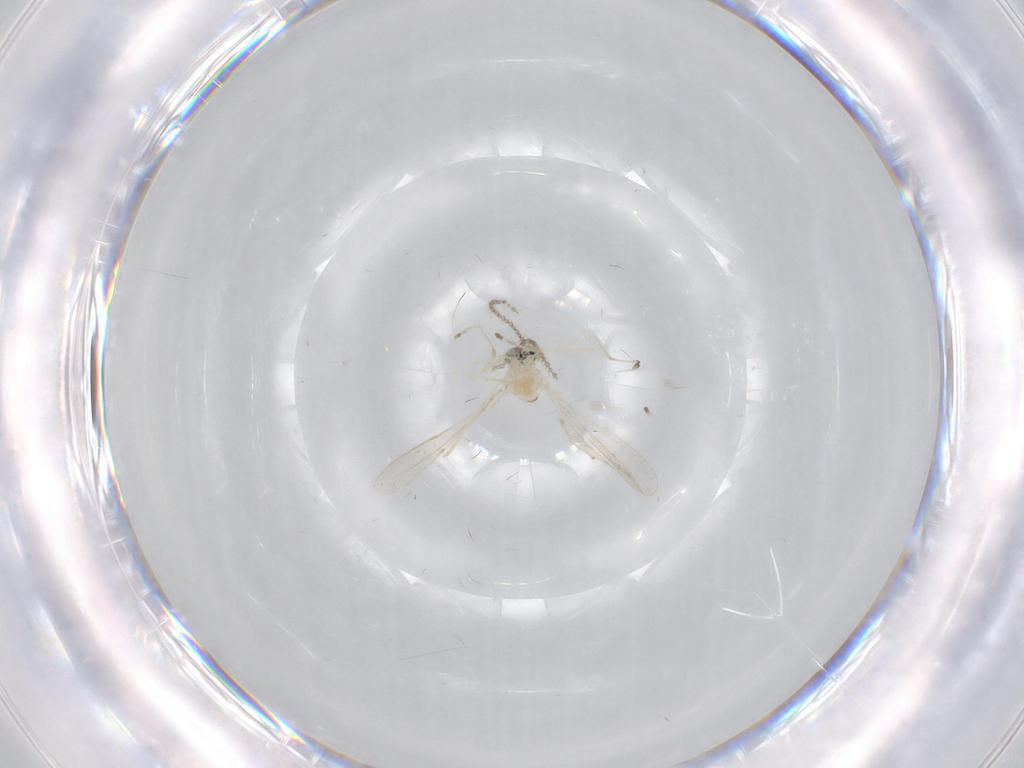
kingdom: Animalia
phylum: Arthropoda
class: Insecta
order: Diptera
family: Cecidomyiidae
